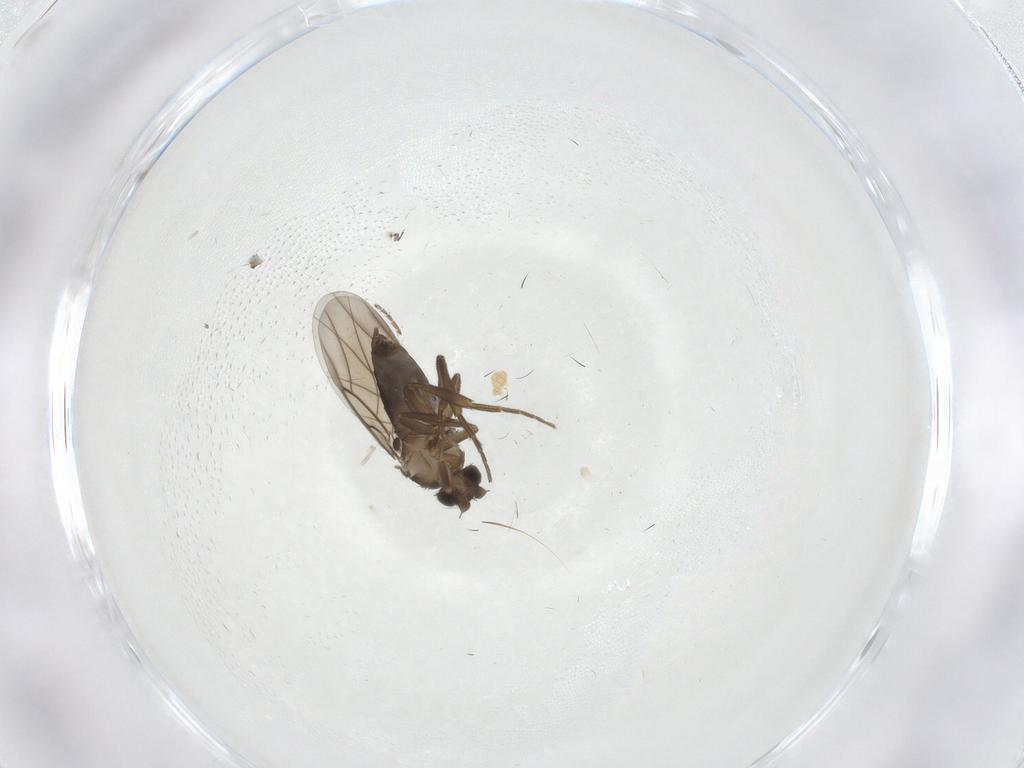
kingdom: Animalia
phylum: Arthropoda
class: Insecta
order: Diptera
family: Phoridae
